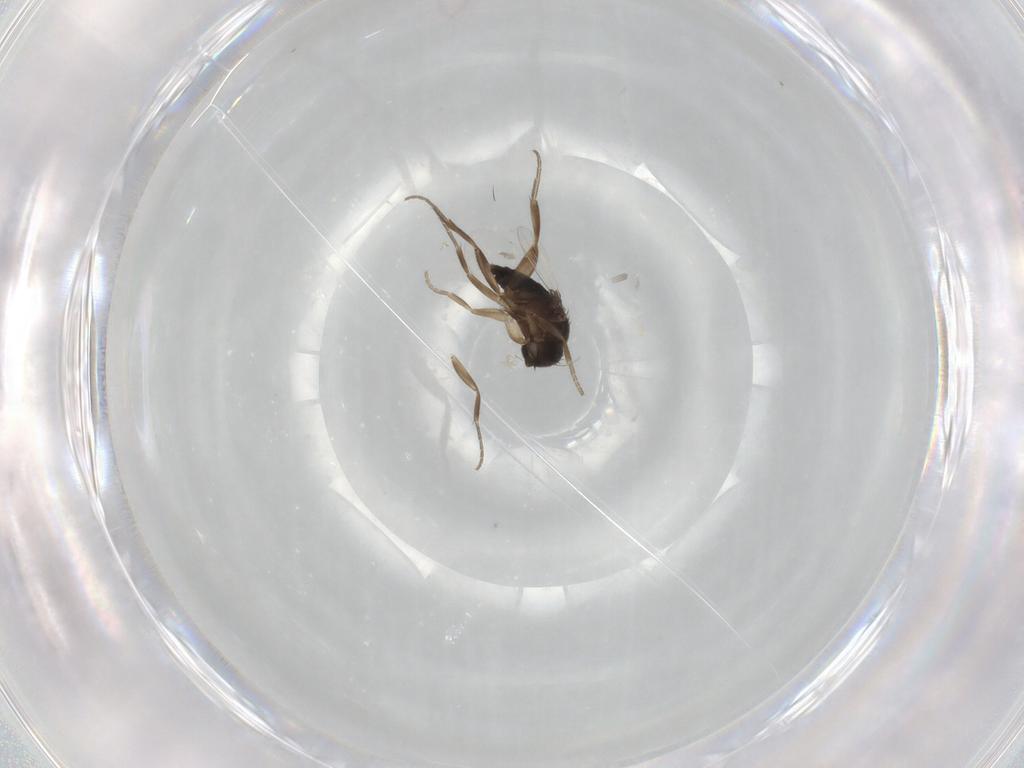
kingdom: Animalia
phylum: Arthropoda
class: Insecta
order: Diptera
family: Phoridae
